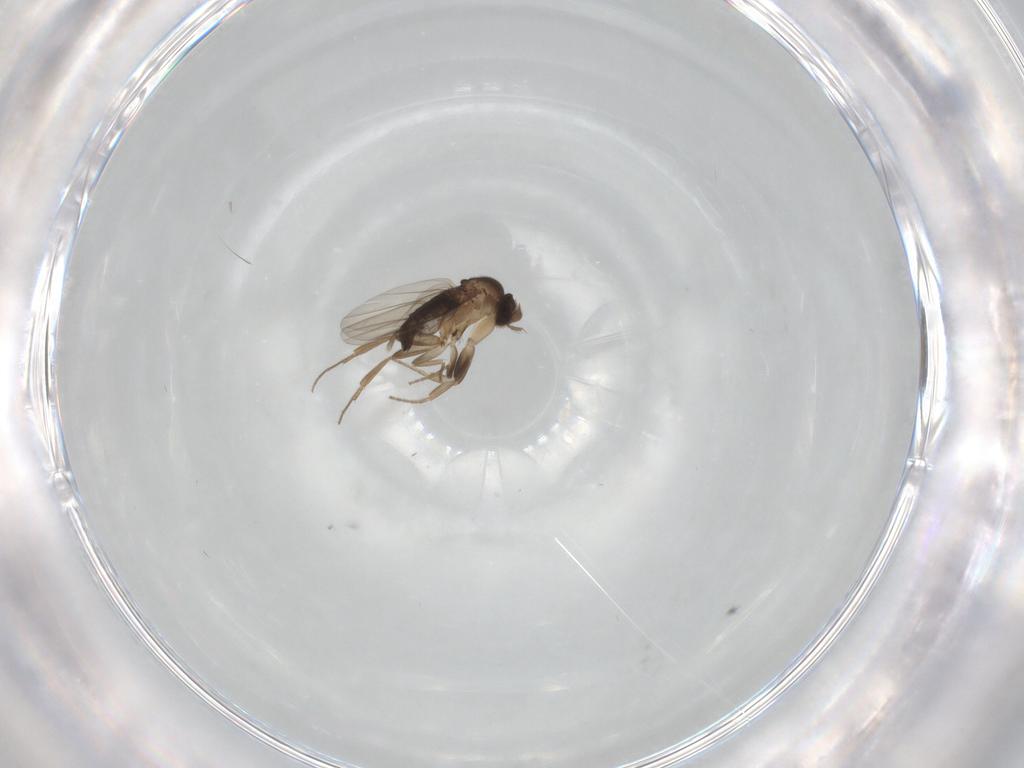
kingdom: Animalia
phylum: Arthropoda
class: Insecta
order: Diptera
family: Phoridae
